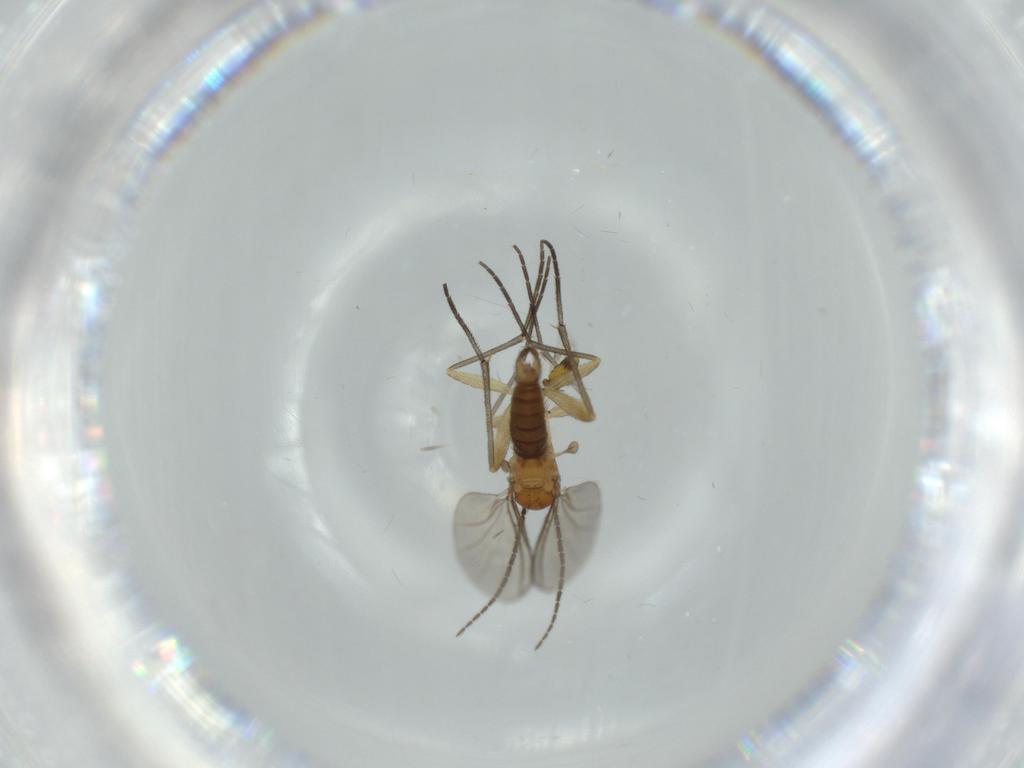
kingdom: Animalia
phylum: Arthropoda
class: Insecta
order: Diptera
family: Sciaridae
